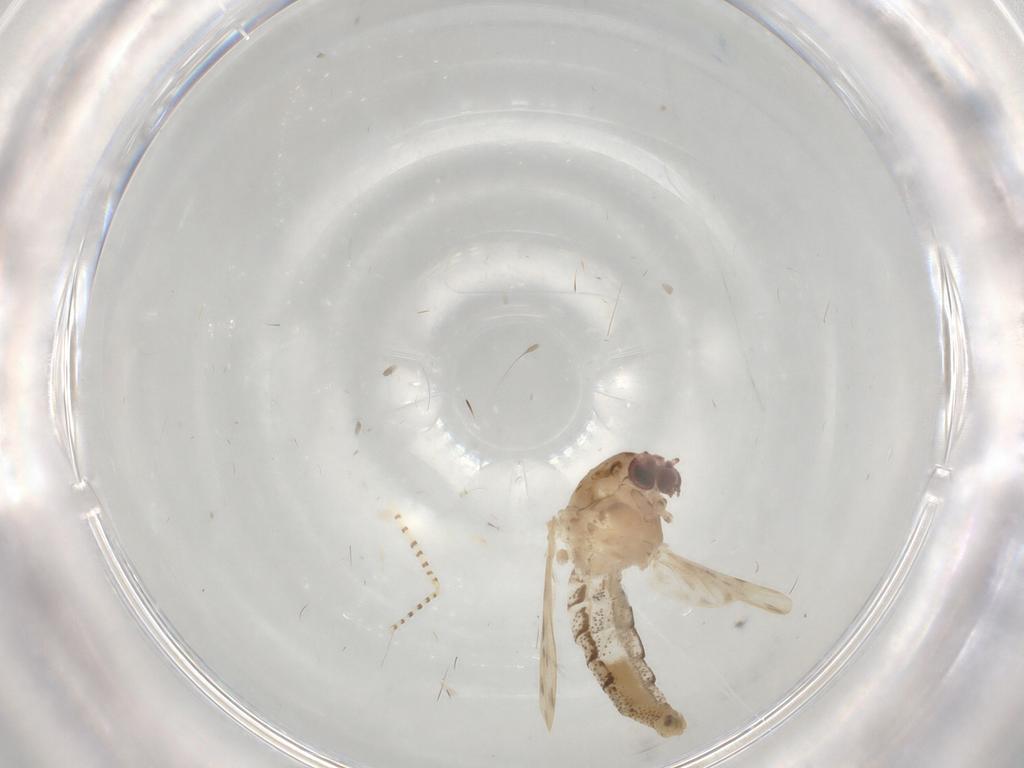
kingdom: Animalia
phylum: Arthropoda
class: Insecta
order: Diptera
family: Chaoboridae
